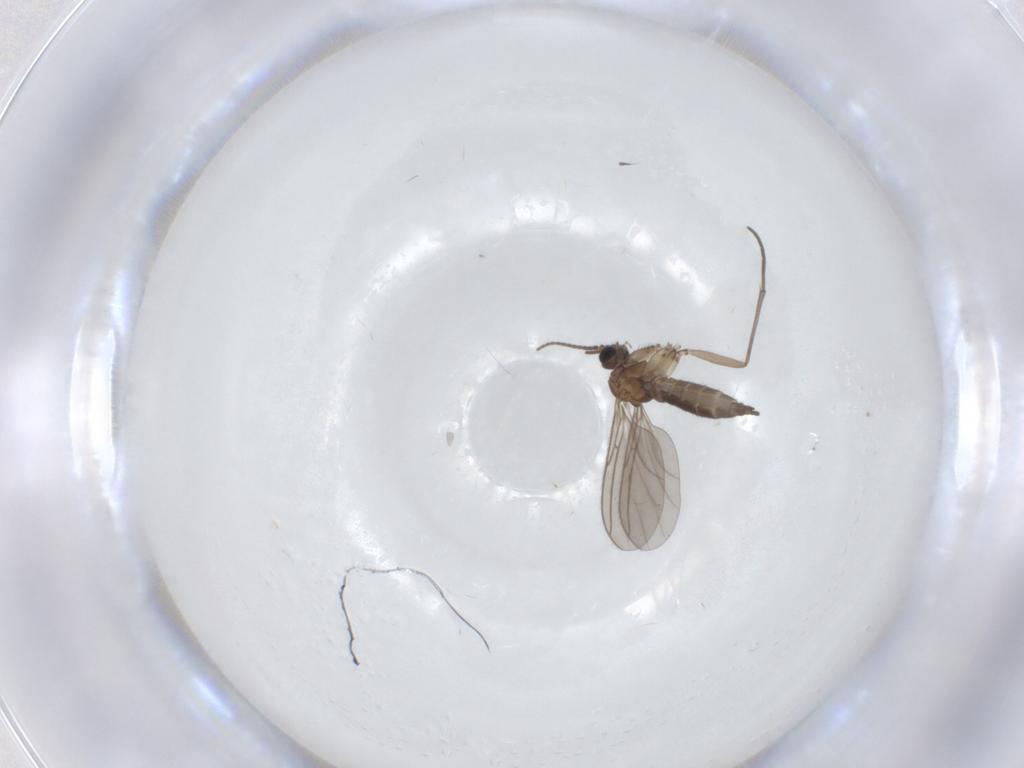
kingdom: Animalia
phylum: Arthropoda
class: Insecta
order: Diptera
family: Sciaridae
